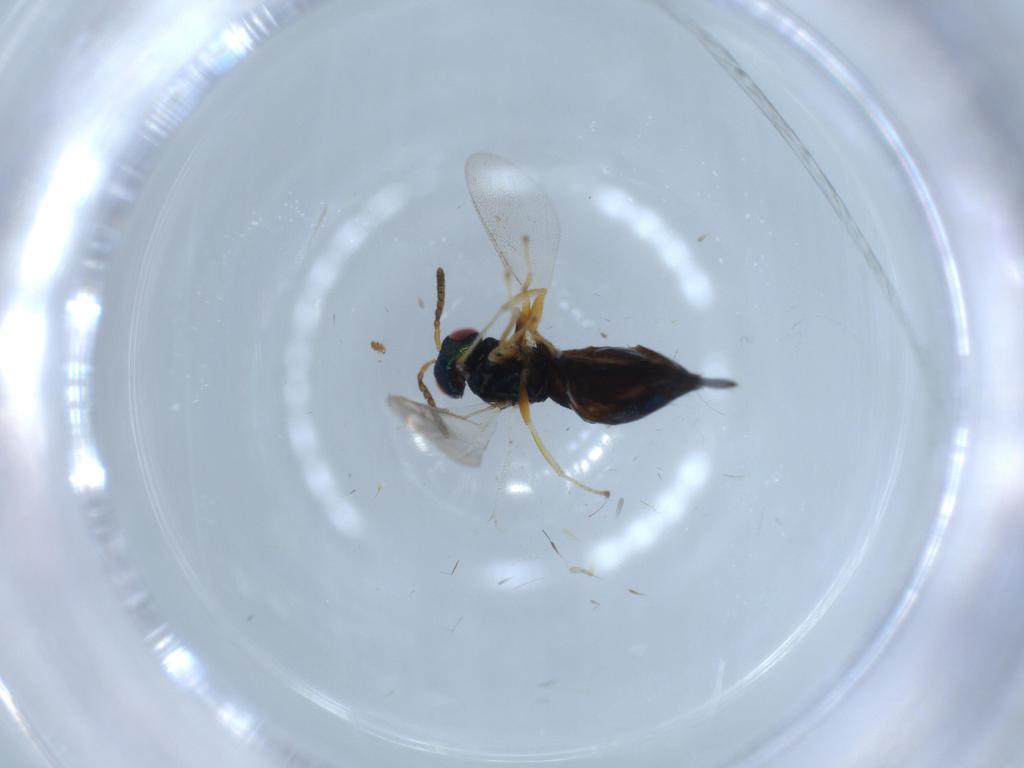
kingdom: Animalia
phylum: Arthropoda
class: Insecta
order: Hymenoptera
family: Pteromalidae
